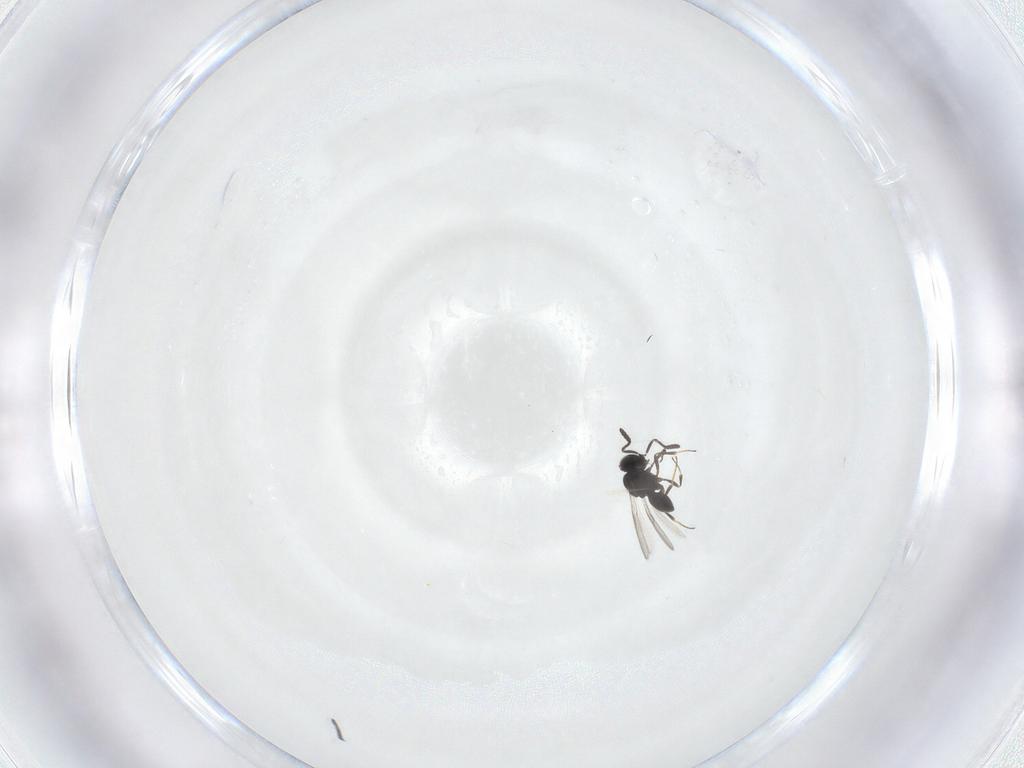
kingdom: Animalia
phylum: Arthropoda
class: Insecta
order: Hymenoptera
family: Scelionidae
